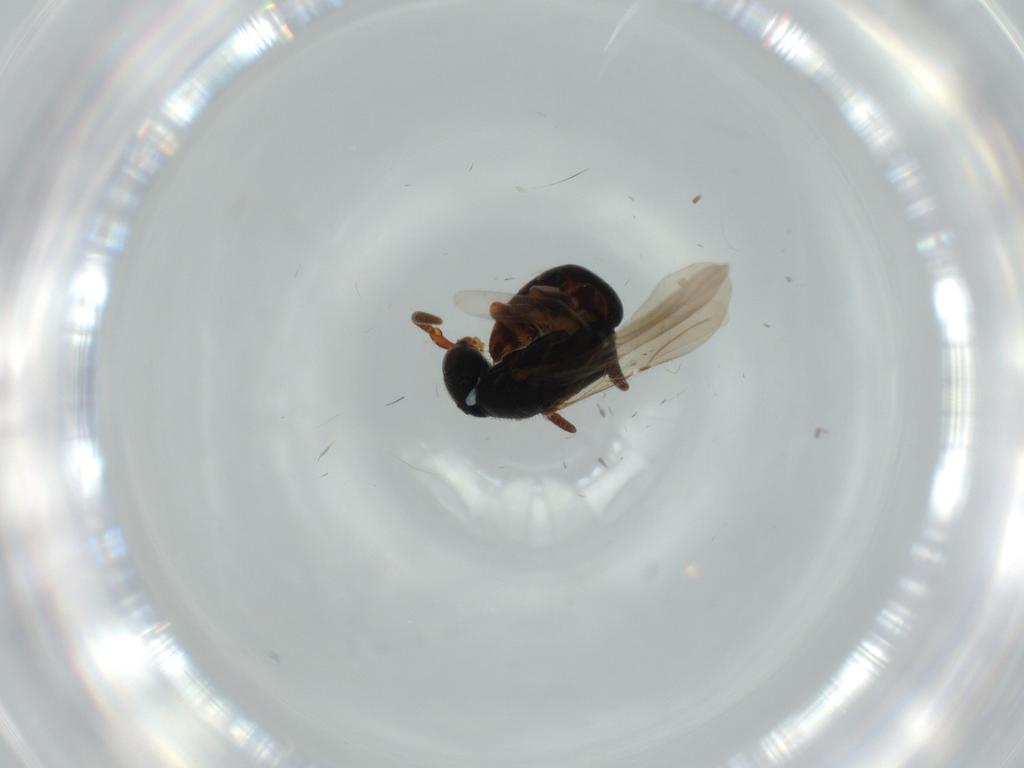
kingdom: Animalia
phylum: Arthropoda
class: Insecta
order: Hymenoptera
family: Bethylidae
